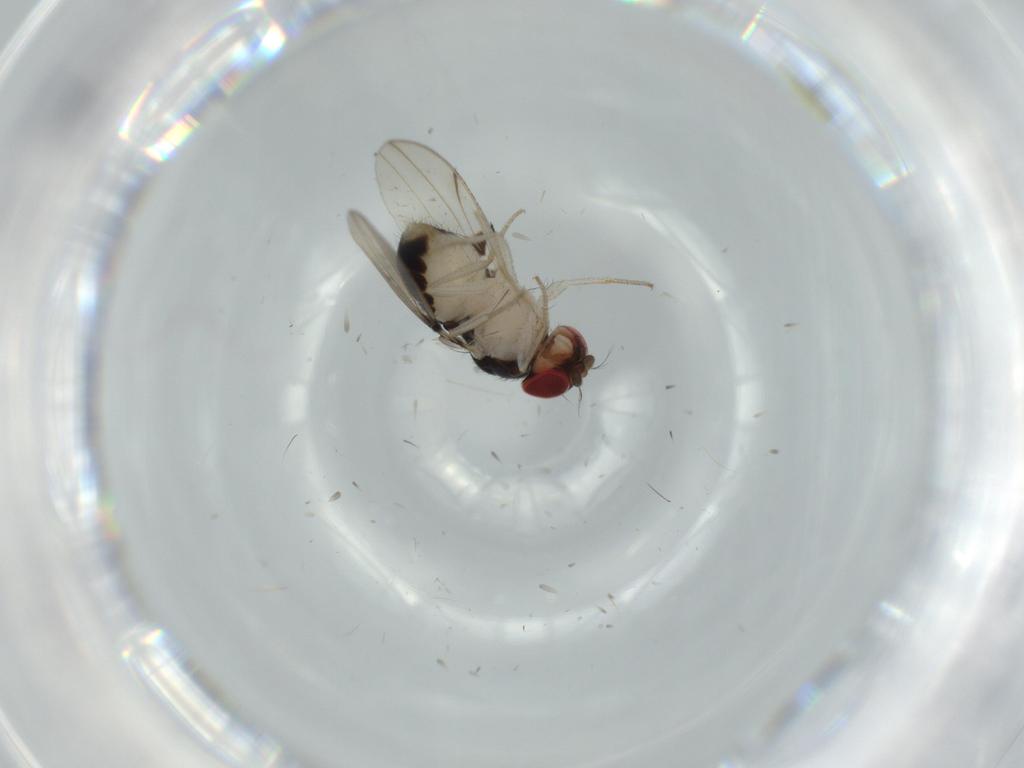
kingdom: Animalia
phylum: Arthropoda
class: Insecta
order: Diptera
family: Drosophilidae
